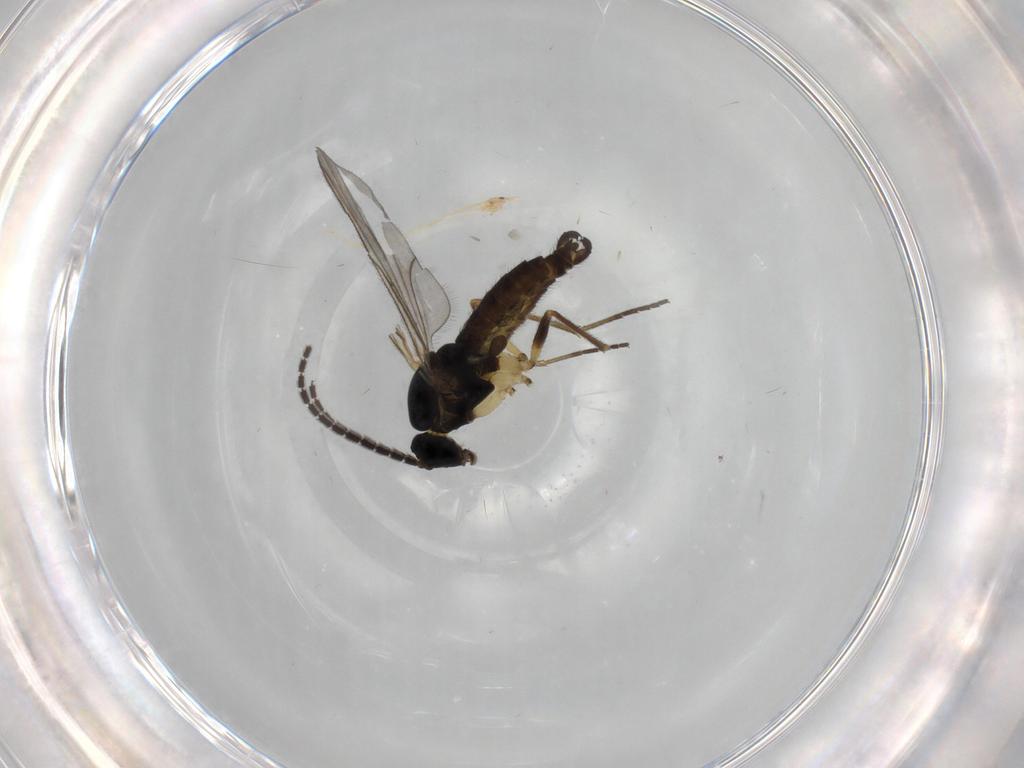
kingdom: Animalia
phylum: Arthropoda
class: Insecta
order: Diptera
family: Sciaridae
